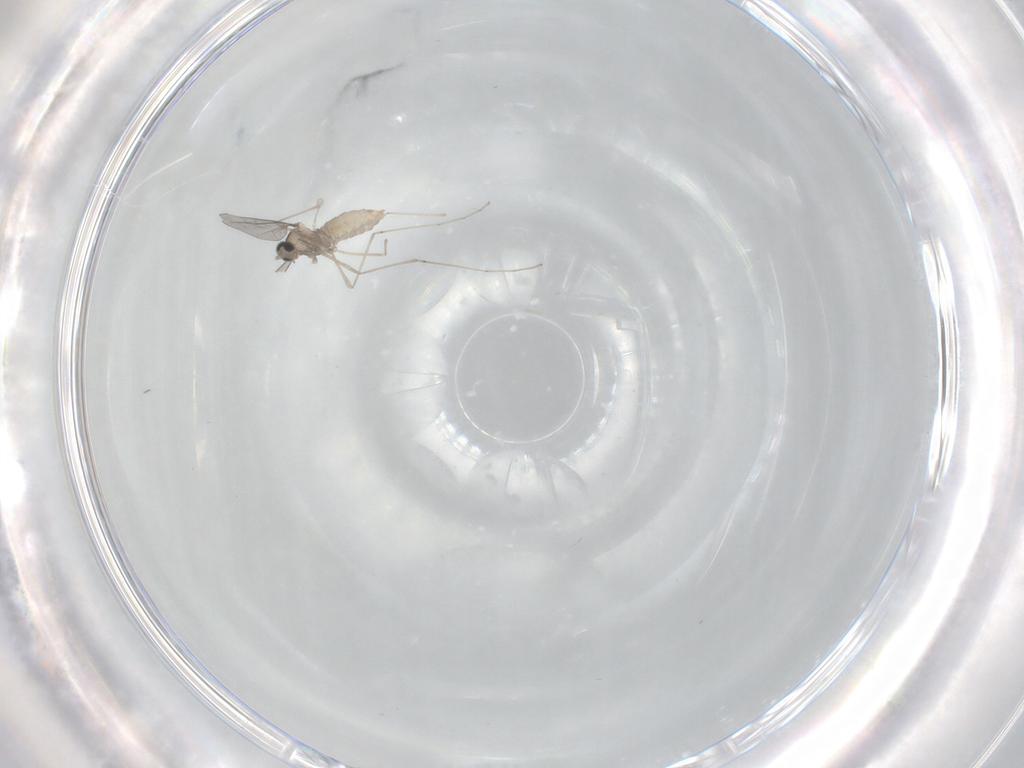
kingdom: Animalia
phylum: Arthropoda
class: Insecta
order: Diptera
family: Cecidomyiidae
